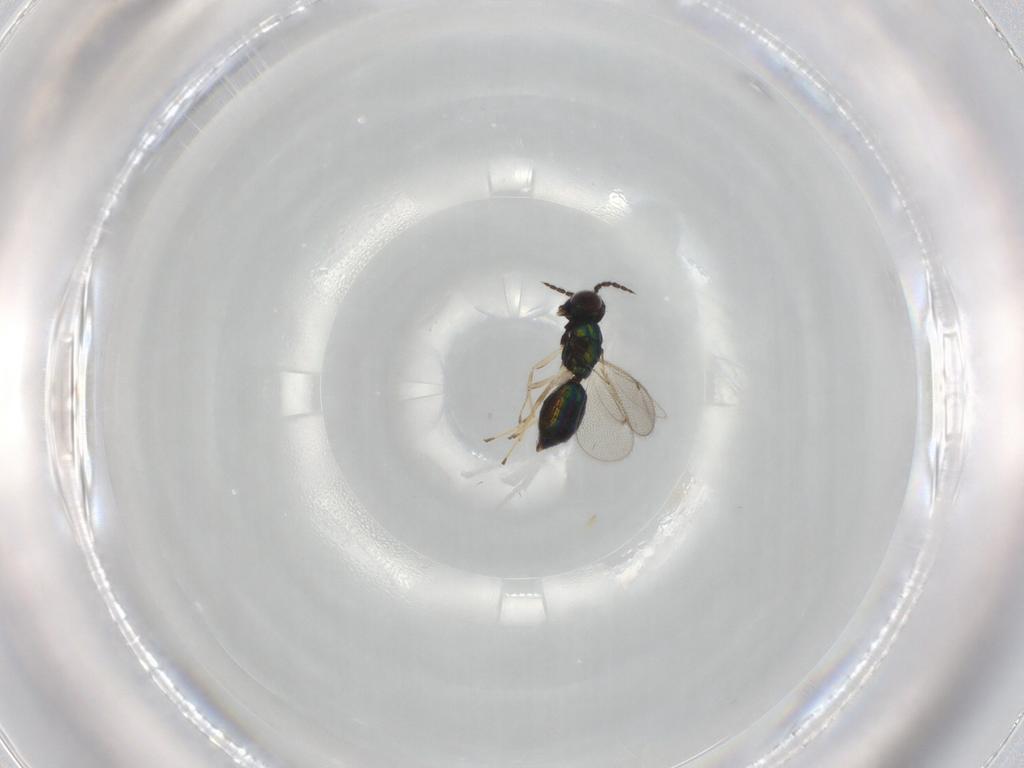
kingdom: Animalia
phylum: Arthropoda
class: Insecta
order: Hymenoptera
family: Eulophidae
